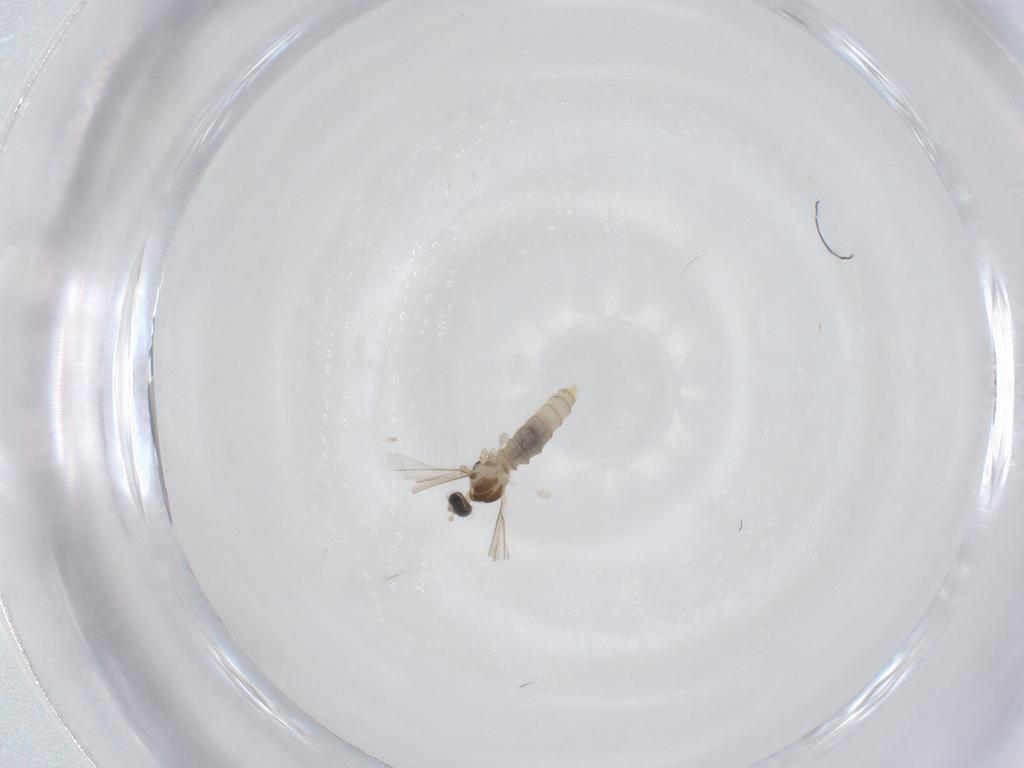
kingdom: Animalia
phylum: Arthropoda
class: Insecta
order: Diptera
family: Cecidomyiidae
